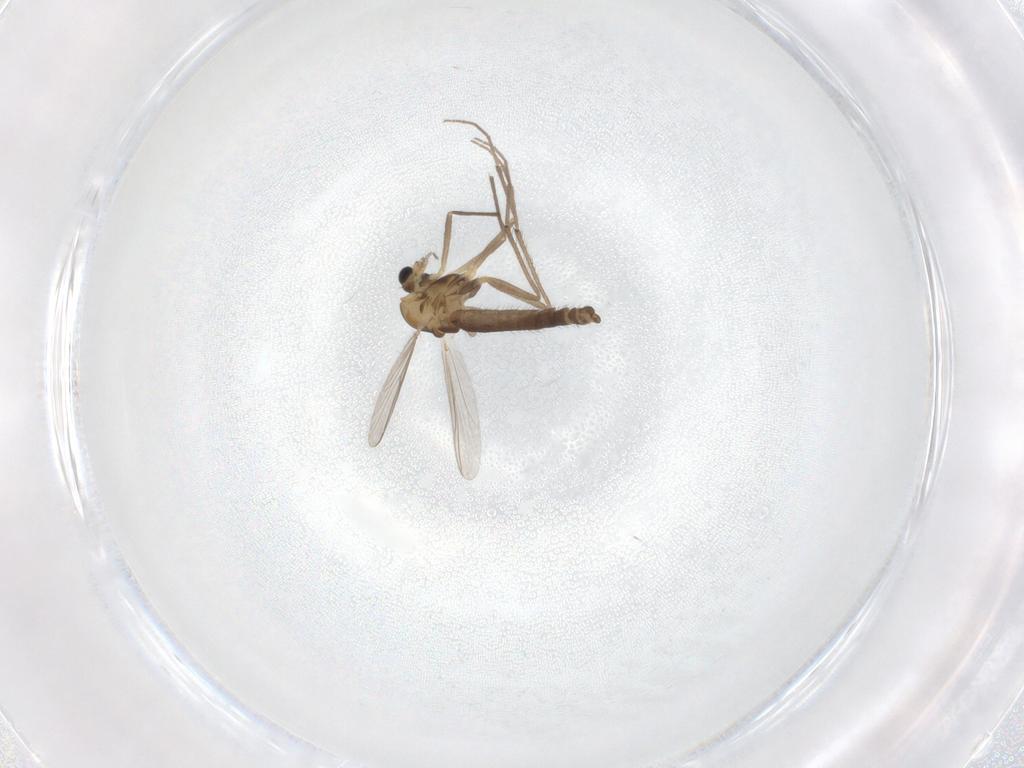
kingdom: Animalia
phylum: Arthropoda
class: Insecta
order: Diptera
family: Chironomidae
